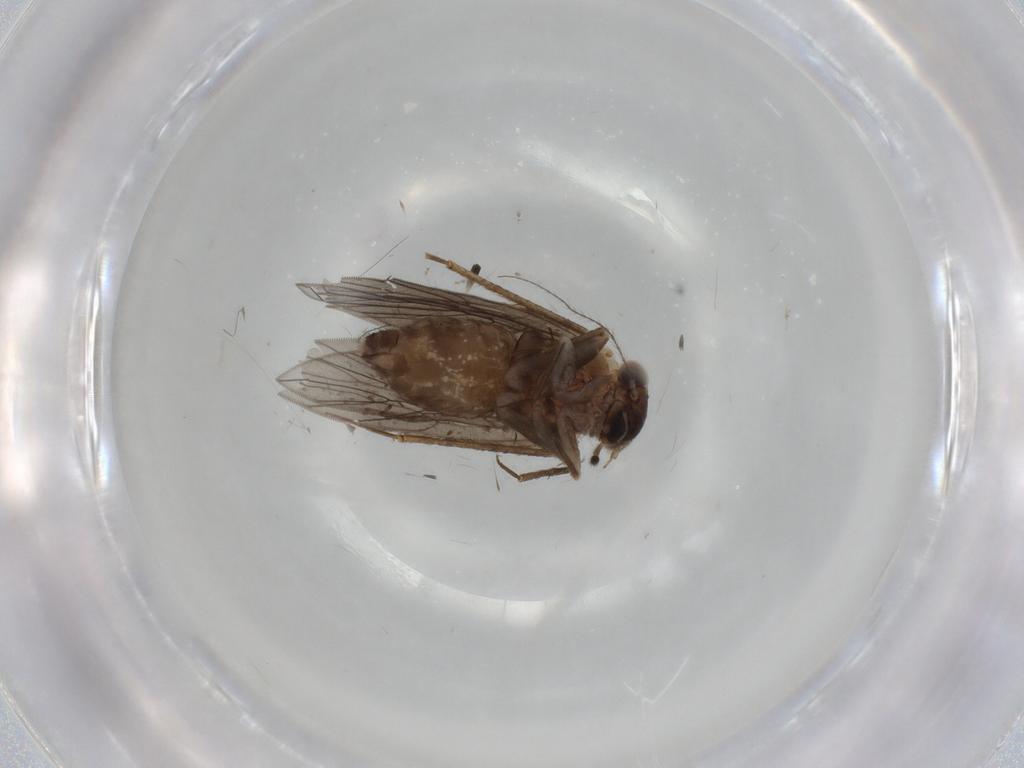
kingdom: Animalia
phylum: Arthropoda
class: Insecta
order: Psocodea
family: Lepidopsocidae
